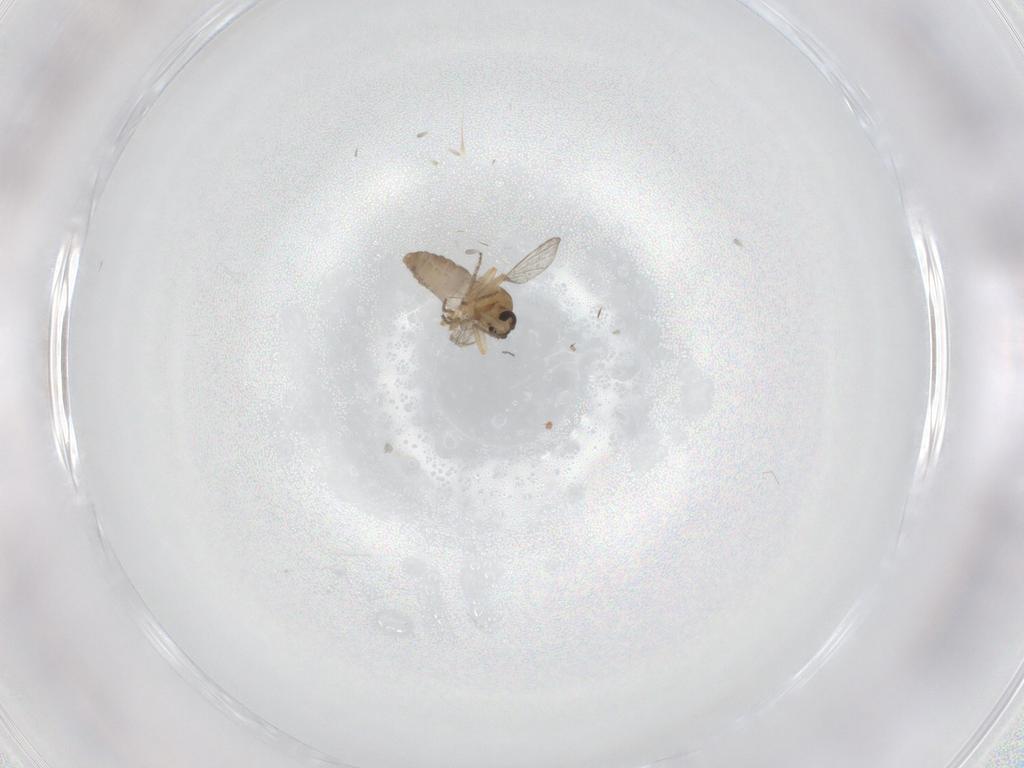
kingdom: Animalia
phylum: Arthropoda
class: Insecta
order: Diptera
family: Ceratopogonidae
